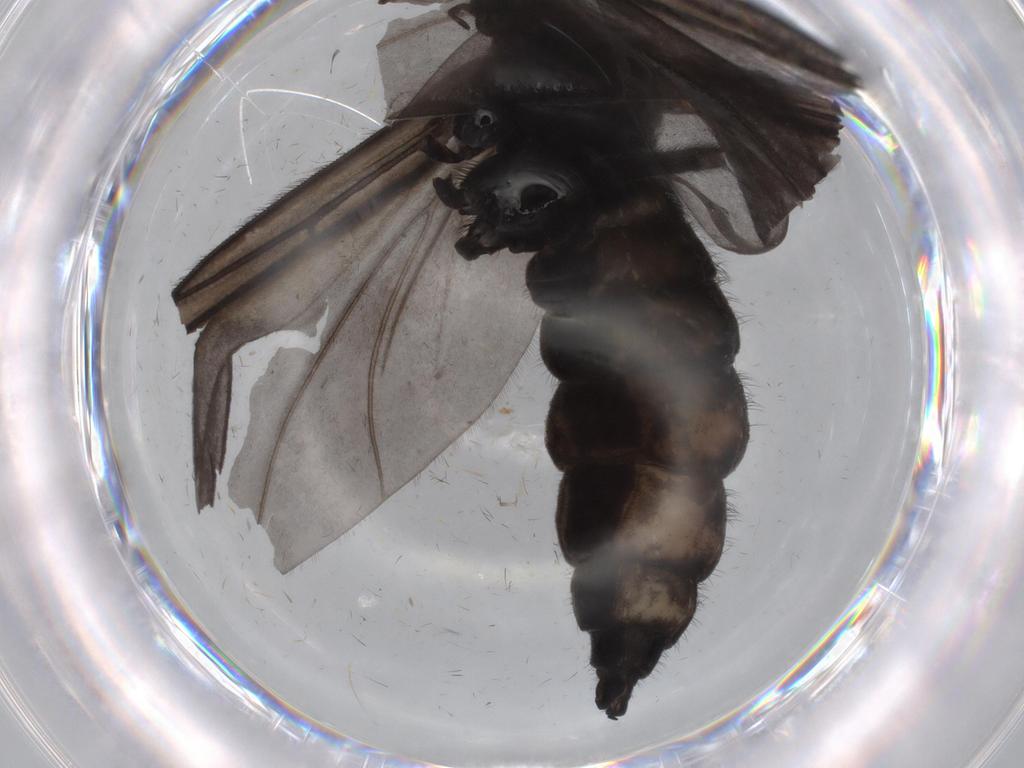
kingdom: Animalia
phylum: Arthropoda
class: Insecta
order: Diptera
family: Sciaridae
